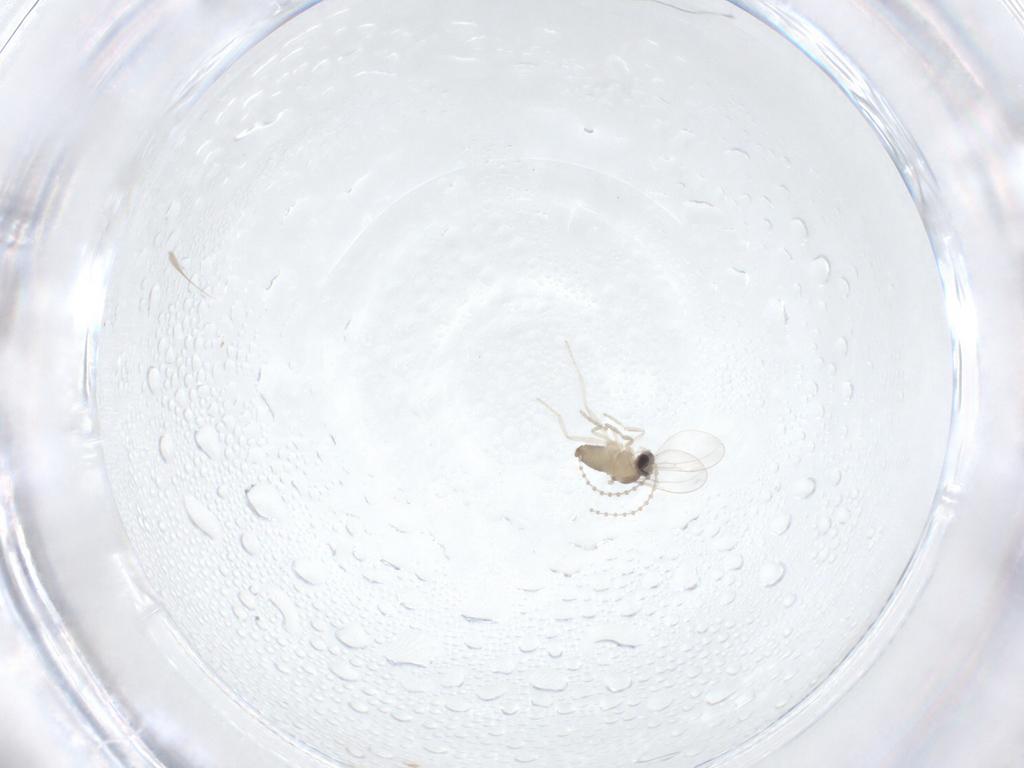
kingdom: Animalia
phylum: Arthropoda
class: Insecta
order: Diptera
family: Cecidomyiidae
